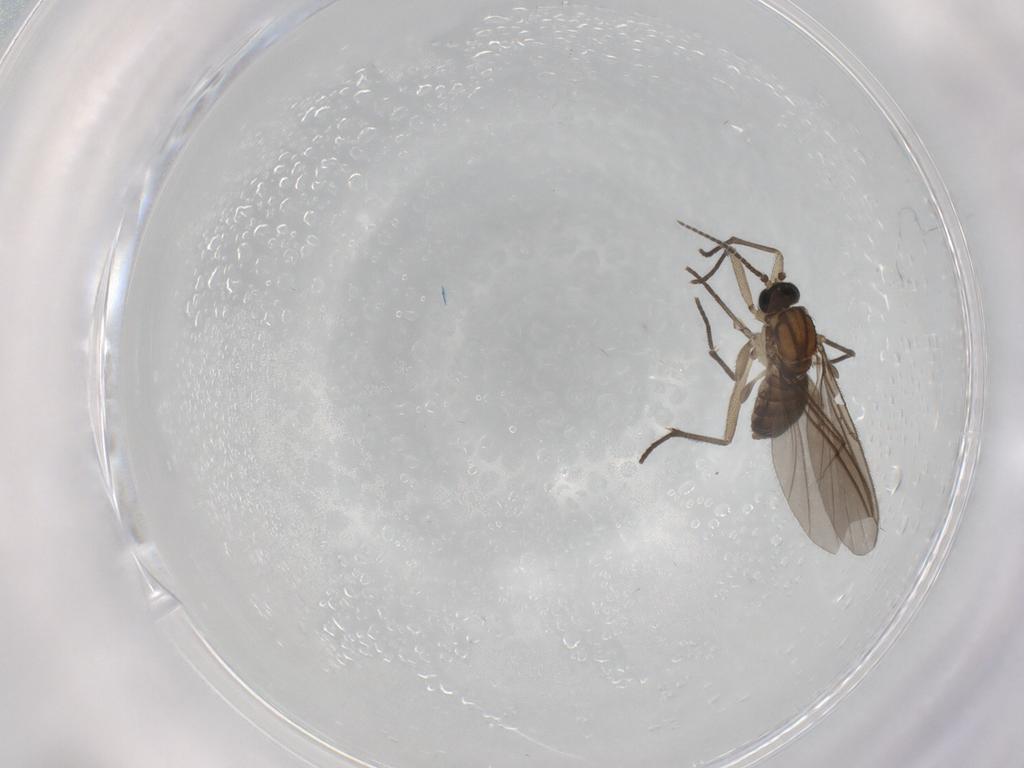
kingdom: Animalia
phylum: Arthropoda
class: Insecta
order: Diptera
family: Sciaridae
